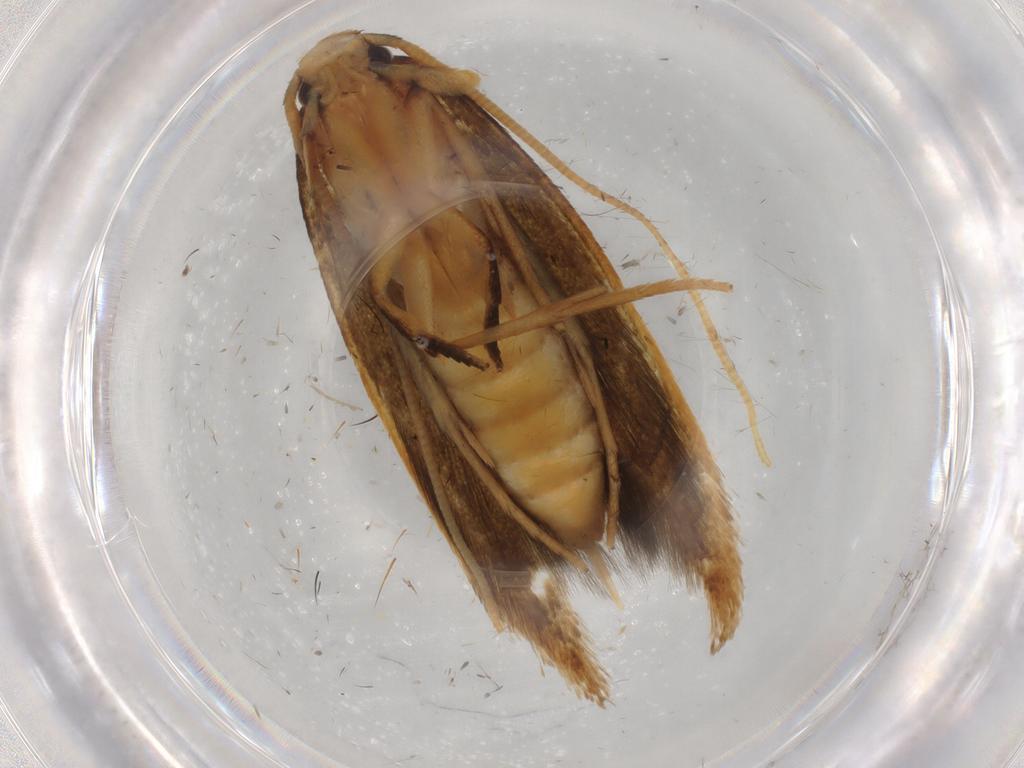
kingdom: Animalia
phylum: Arthropoda
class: Insecta
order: Lepidoptera
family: Tineidae
